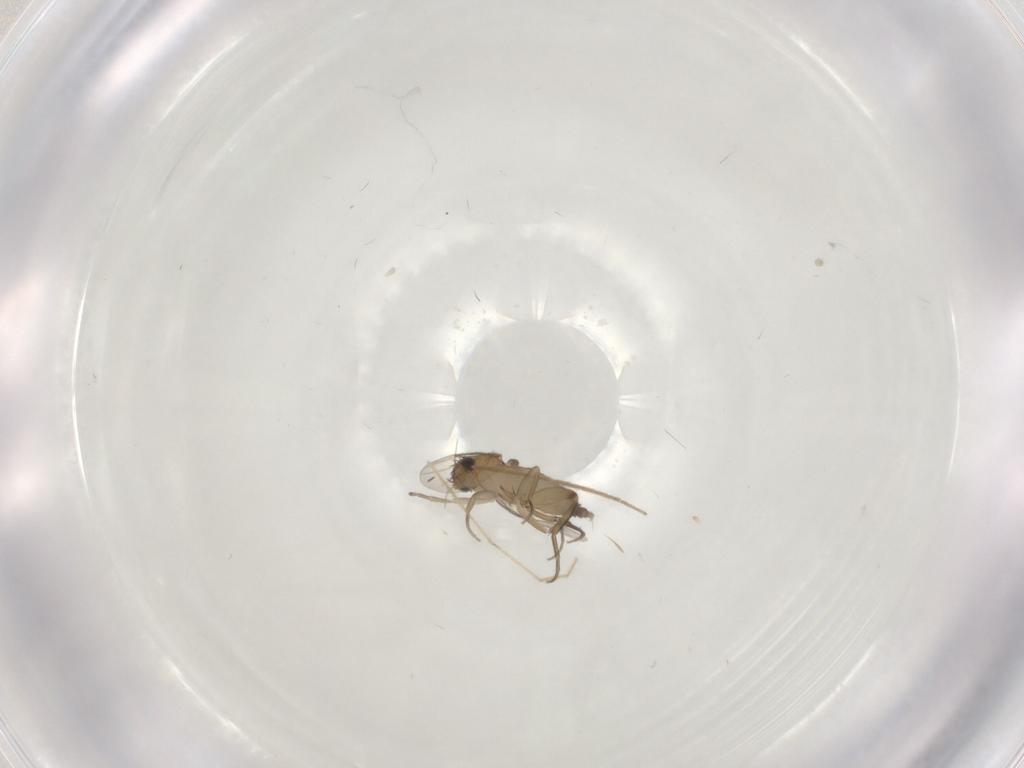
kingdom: Animalia
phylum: Arthropoda
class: Insecta
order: Diptera
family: Phoridae
